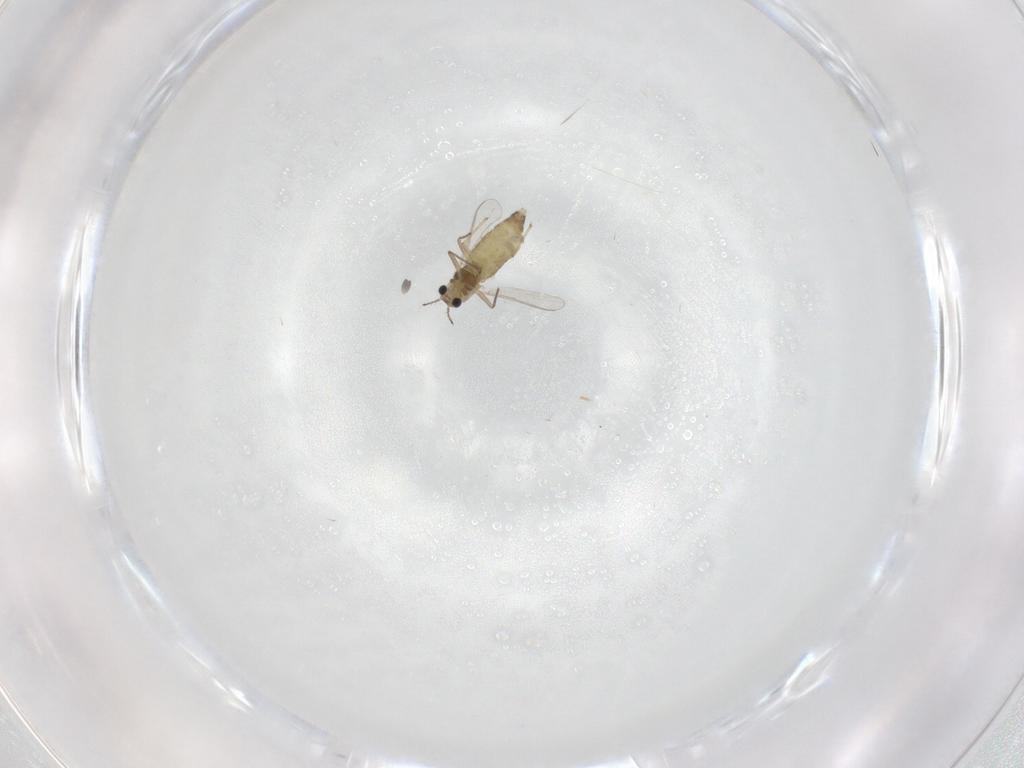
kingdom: Animalia
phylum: Arthropoda
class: Insecta
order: Diptera
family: Chironomidae
